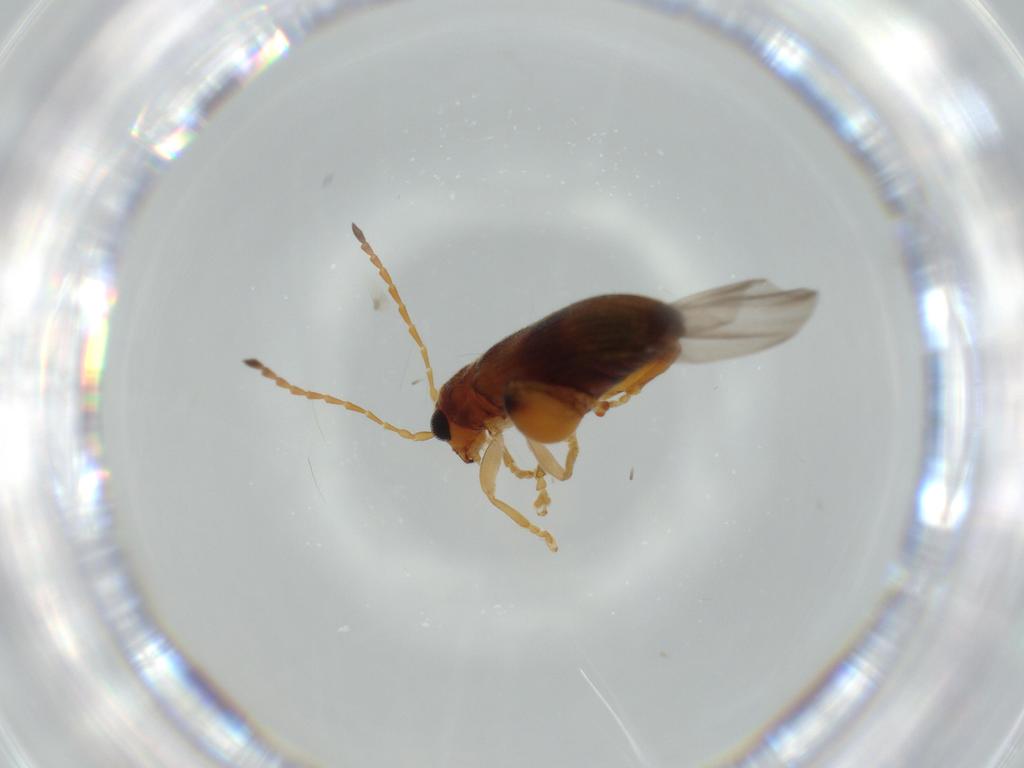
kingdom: Animalia
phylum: Arthropoda
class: Insecta
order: Coleoptera
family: Chrysomelidae
